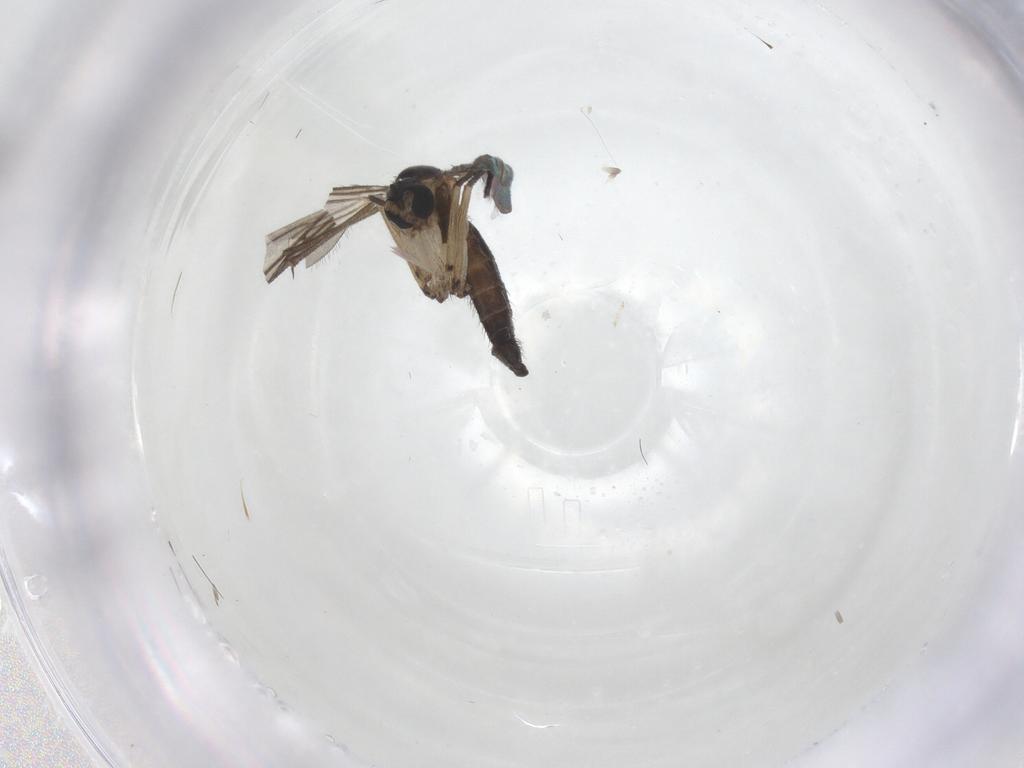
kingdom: Animalia
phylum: Arthropoda
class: Insecta
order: Diptera
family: Sciaridae
